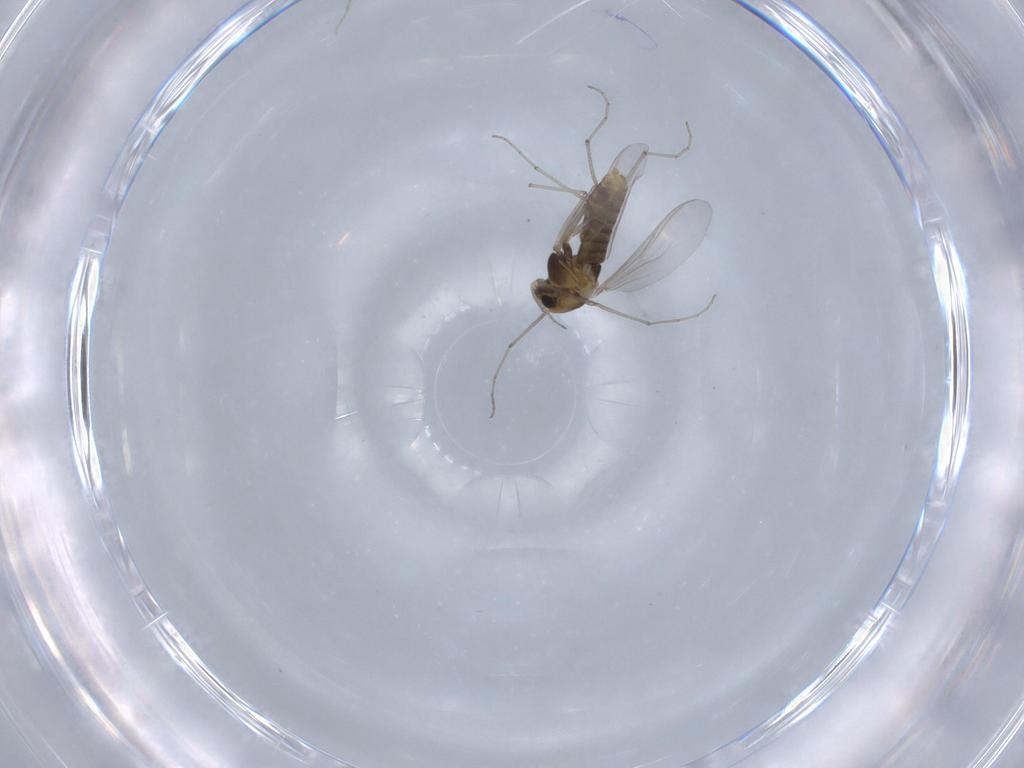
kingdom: Animalia
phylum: Arthropoda
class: Insecta
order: Diptera
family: Chironomidae
